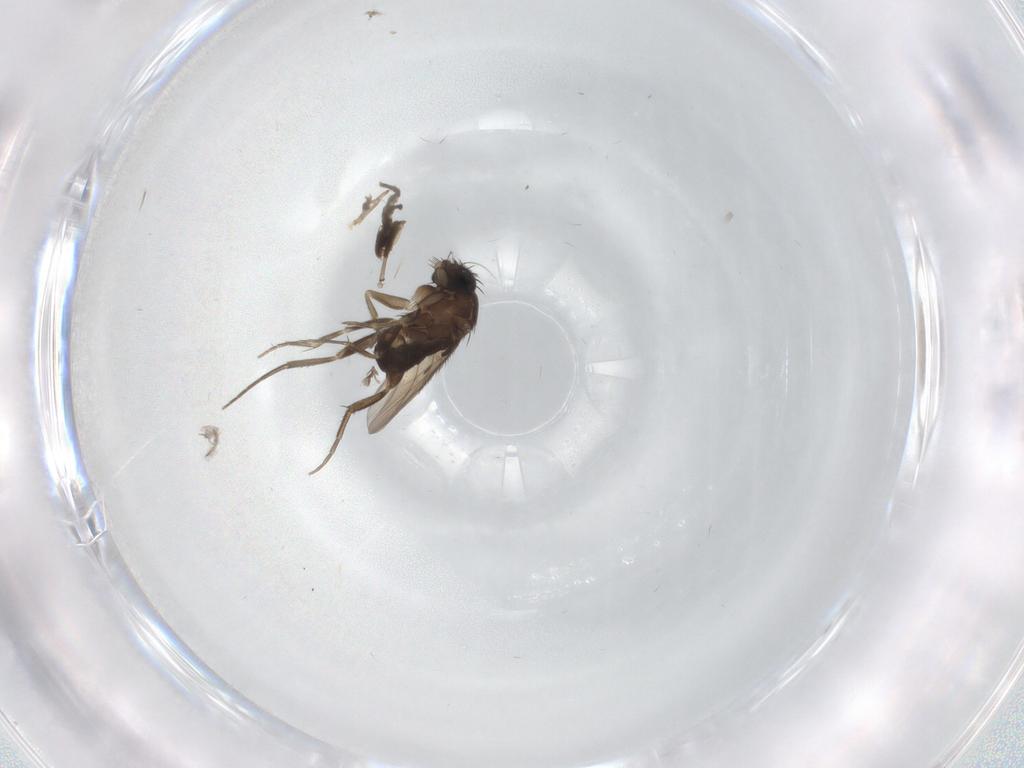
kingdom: Animalia
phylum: Arthropoda
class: Insecta
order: Diptera
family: Phoridae
